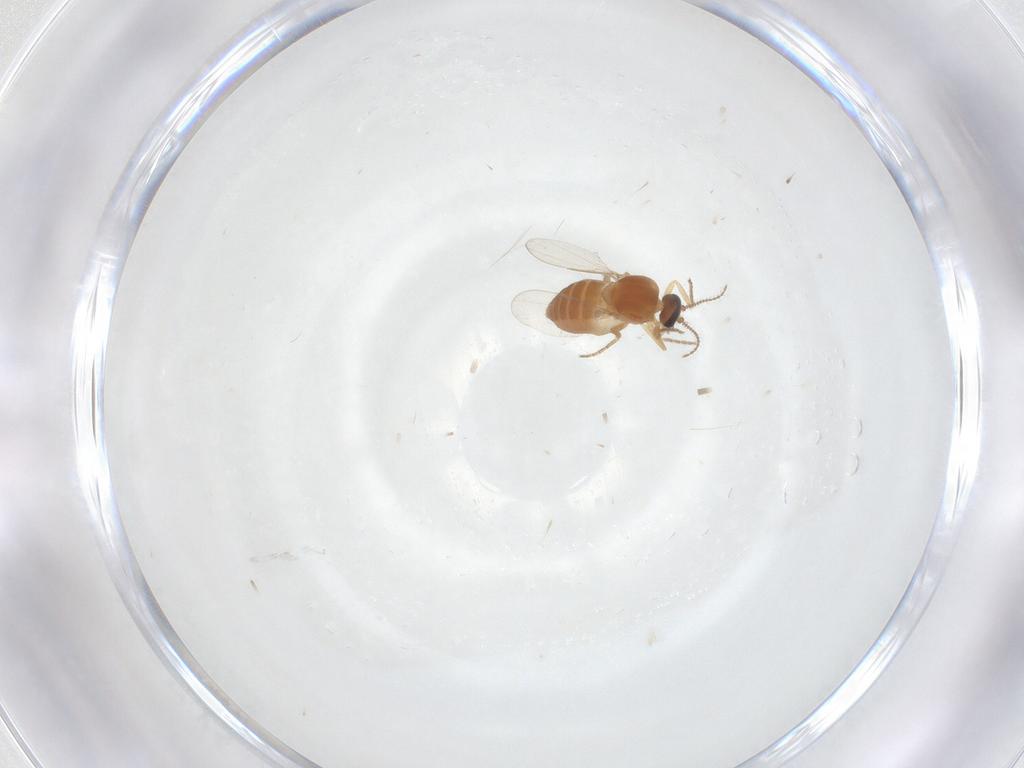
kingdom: Animalia
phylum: Arthropoda
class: Insecta
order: Diptera
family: Ceratopogonidae
